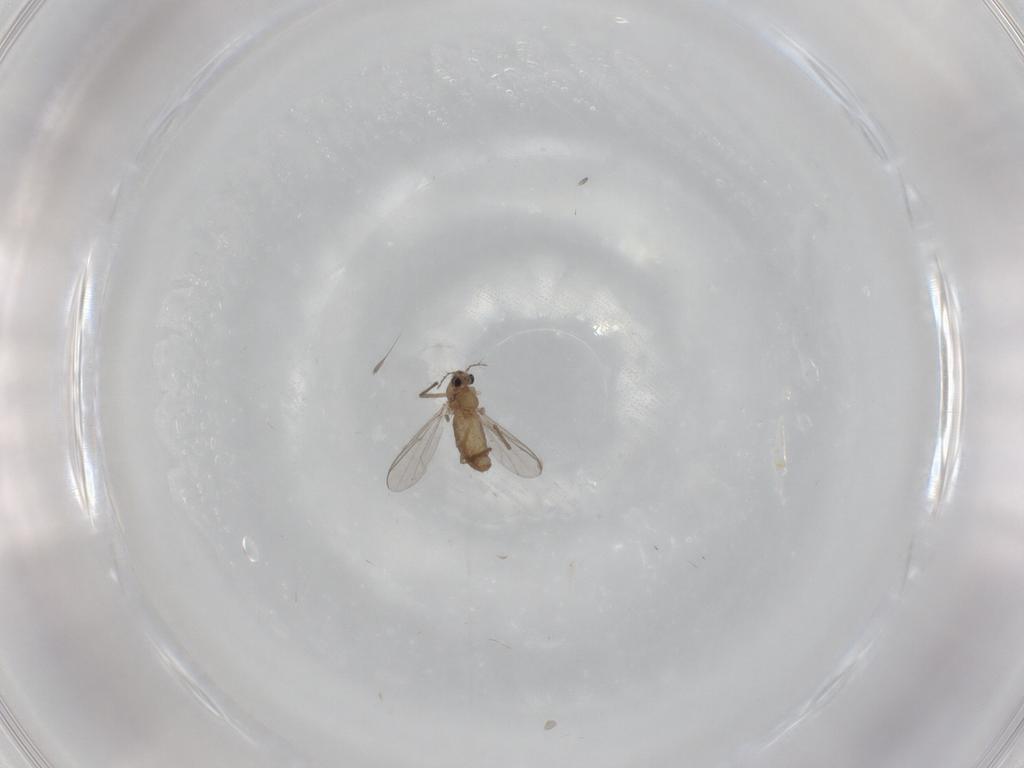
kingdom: Animalia
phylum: Arthropoda
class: Insecta
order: Diptera
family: Chironomidae
